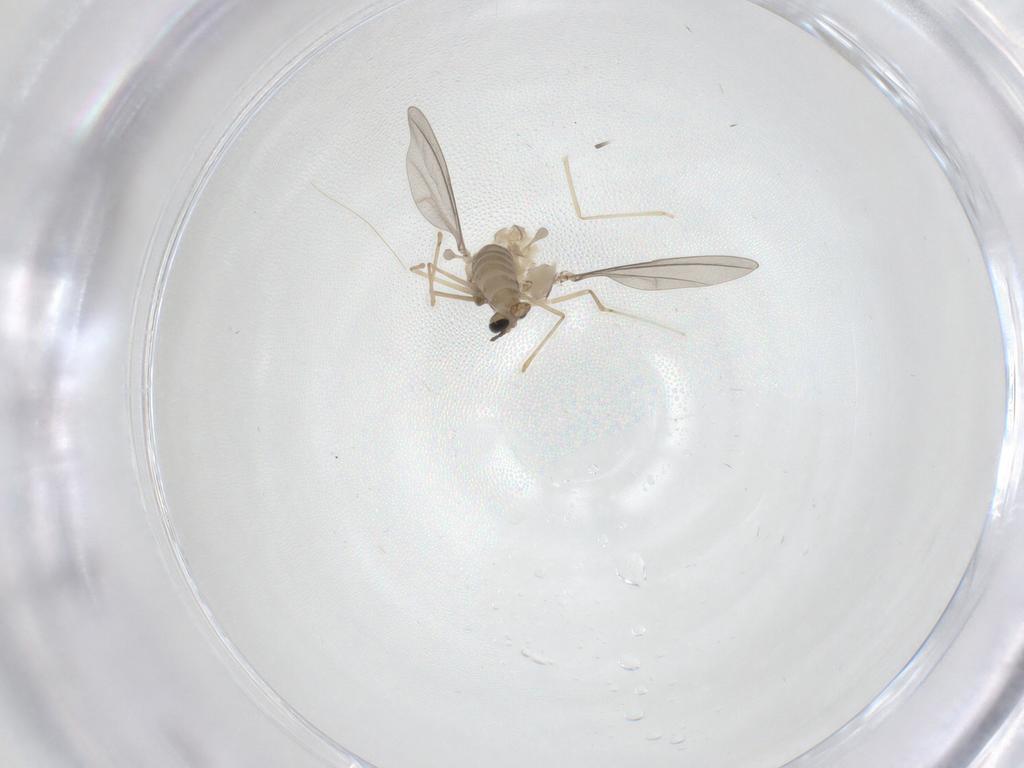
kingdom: Animalia
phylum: Arthropoda
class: Insecta
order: Diptera
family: Cecidomyiidae
